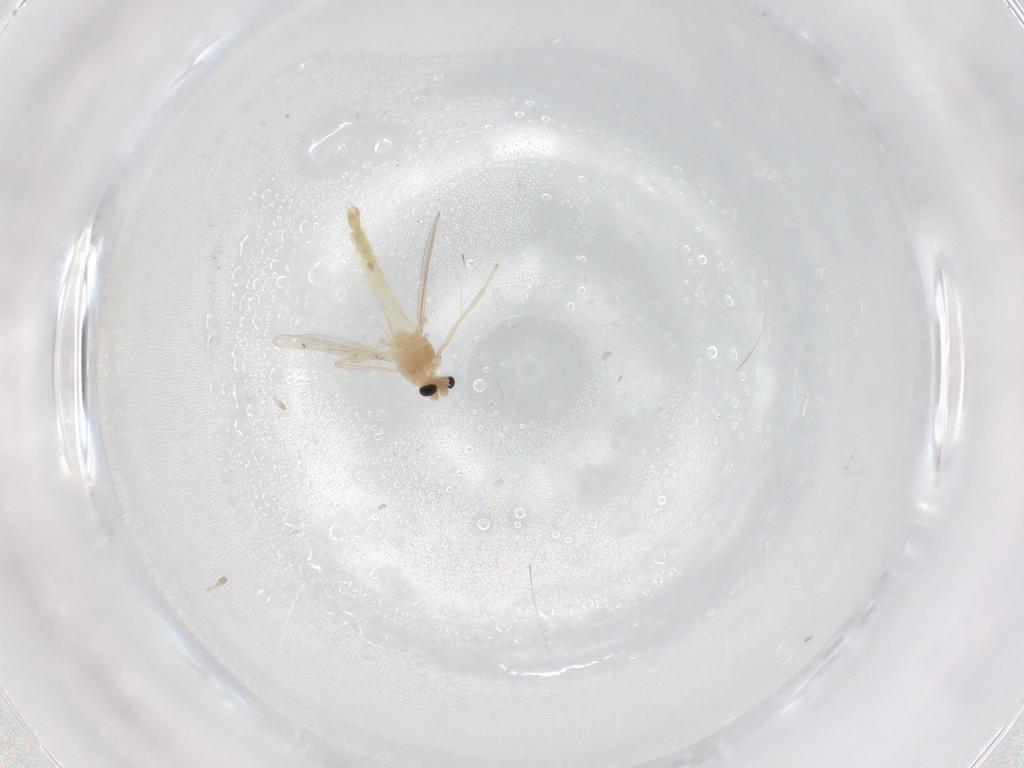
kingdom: Animalia
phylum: Arthropoda
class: Insecta
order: Diptera
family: Chironomidae
